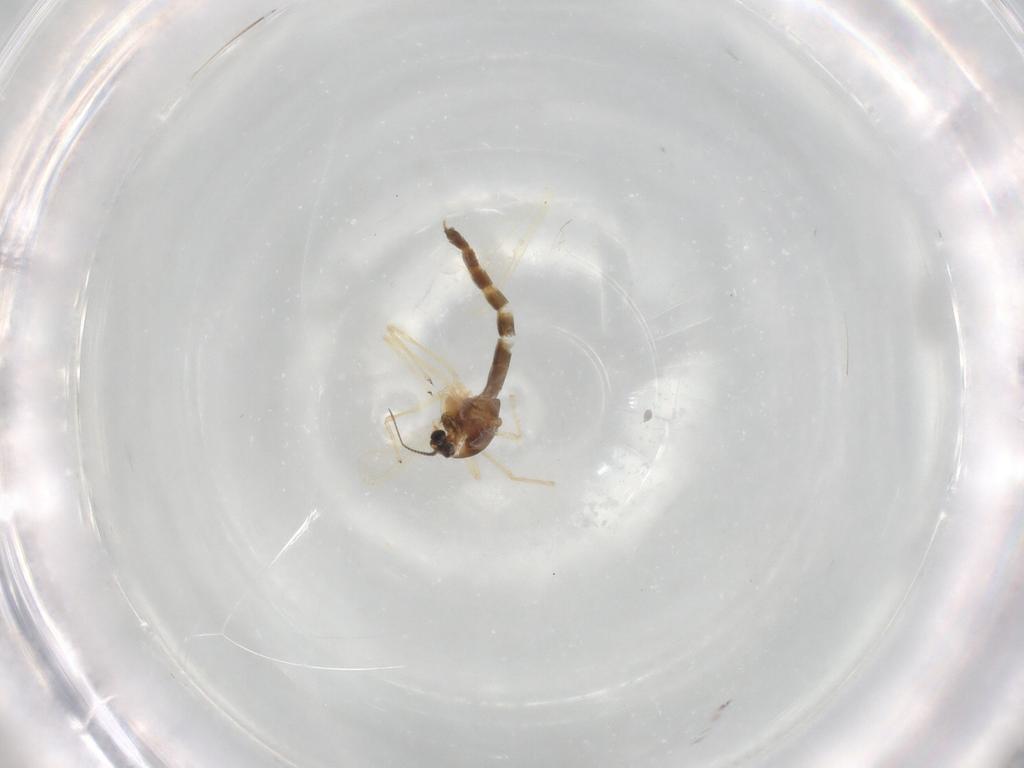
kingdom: Animalia
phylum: Arthropoda
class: Insecta
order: Diptera
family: Chironomidae
